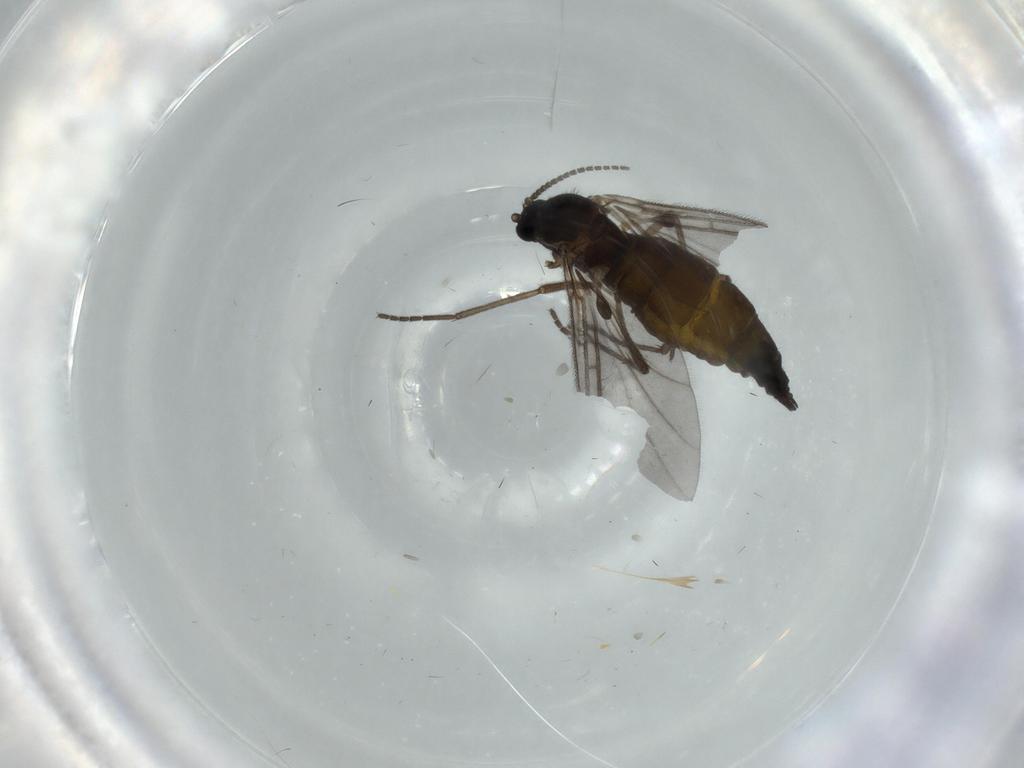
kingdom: Animalia
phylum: Arthropoda
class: Insecta
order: Diptera
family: Sciaridae
